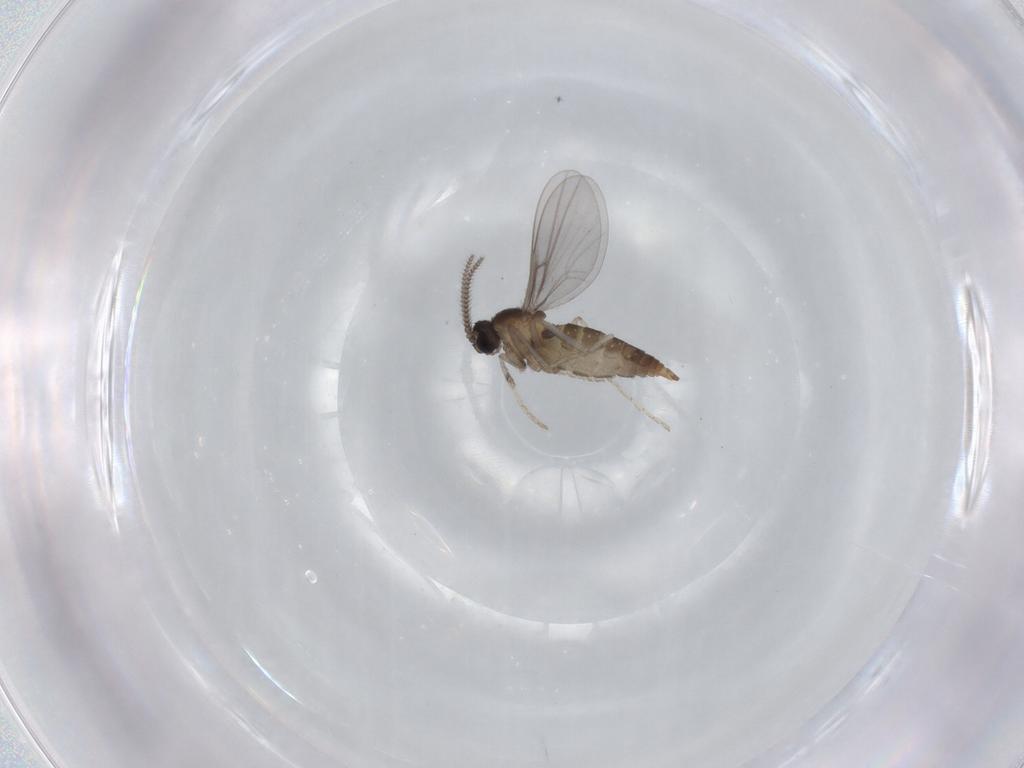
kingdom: Animalia
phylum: Arthropoda
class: Insecta
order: Diptera
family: Cecidomyiidae
